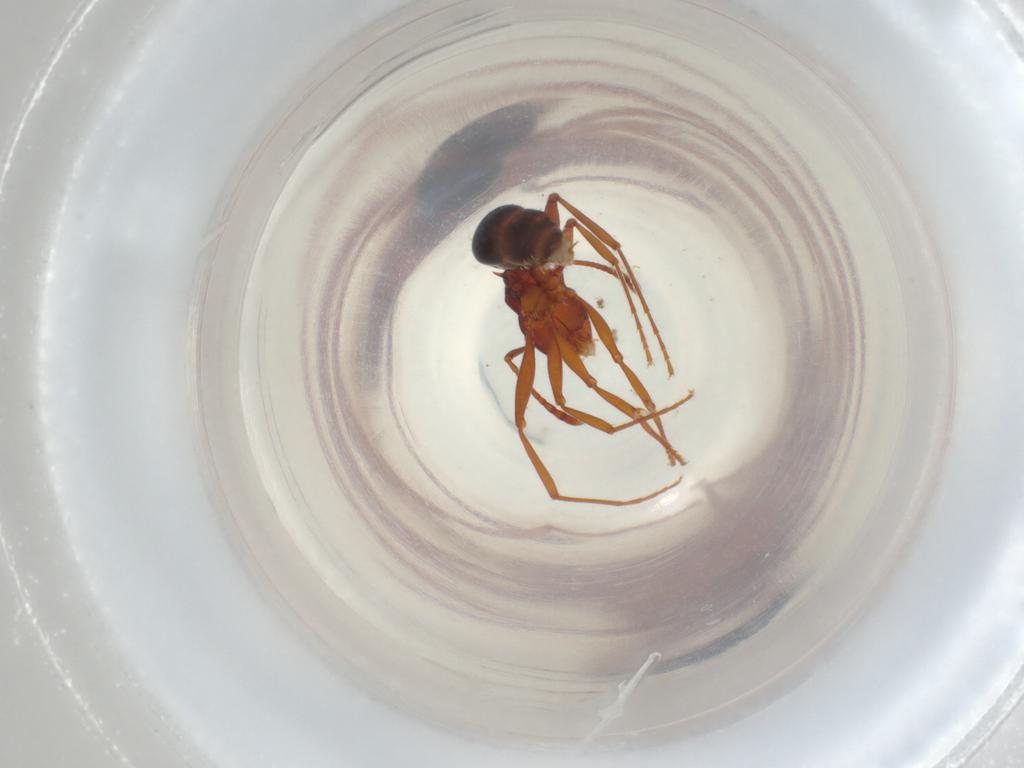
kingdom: Animalia
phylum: Arthropoda
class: Insecta
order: Hymenoptera
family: Formicidae
